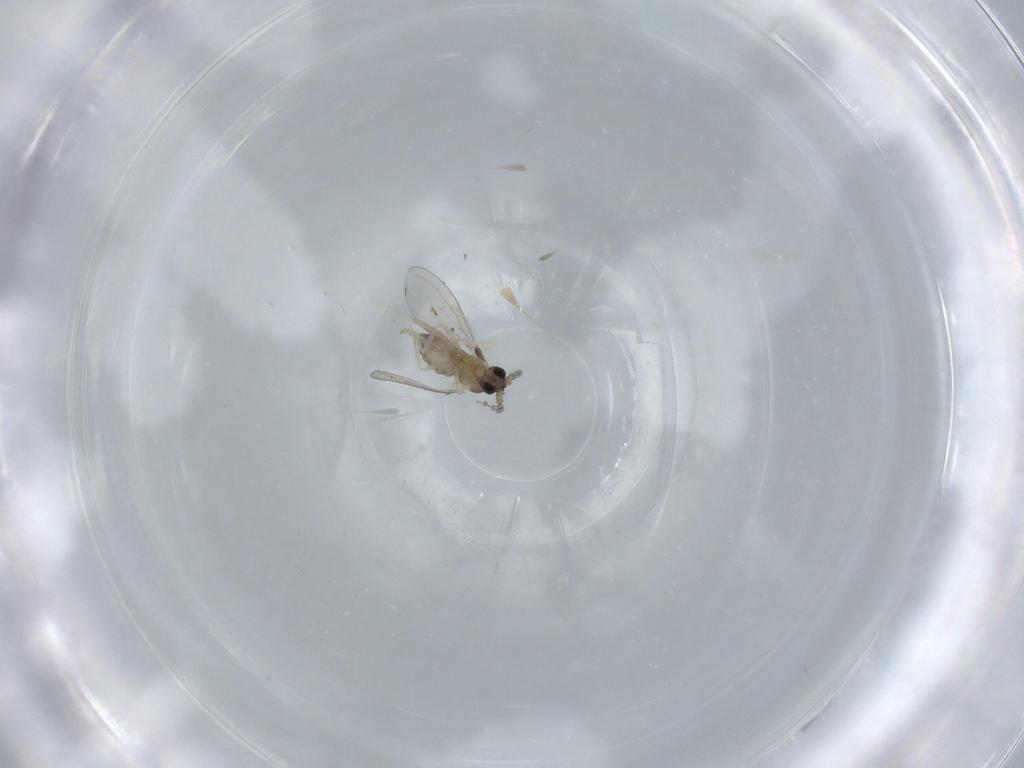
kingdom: Animalia
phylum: Arthropoda
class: Insecta
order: Diptera
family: Cecidomyiidae
